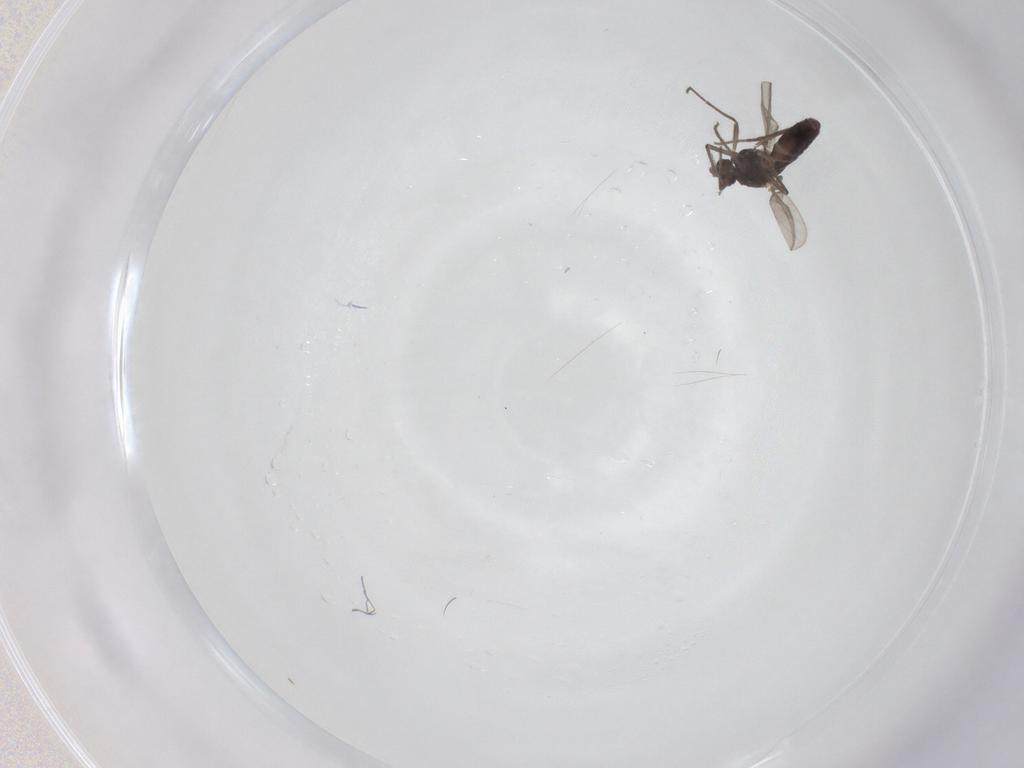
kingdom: Animalia
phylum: Arthropoda
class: Insecta
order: Diptera
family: Chironomidae
